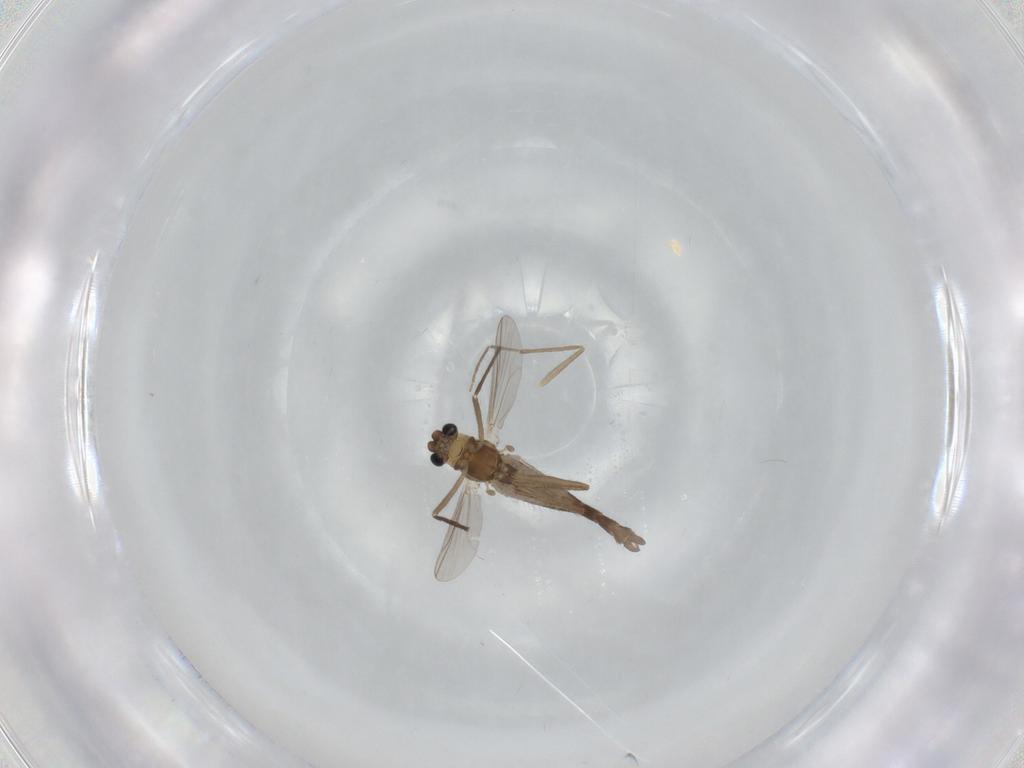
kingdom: Animalia
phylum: Arthropoda
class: Insecta
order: Diptera
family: Chironomidae
